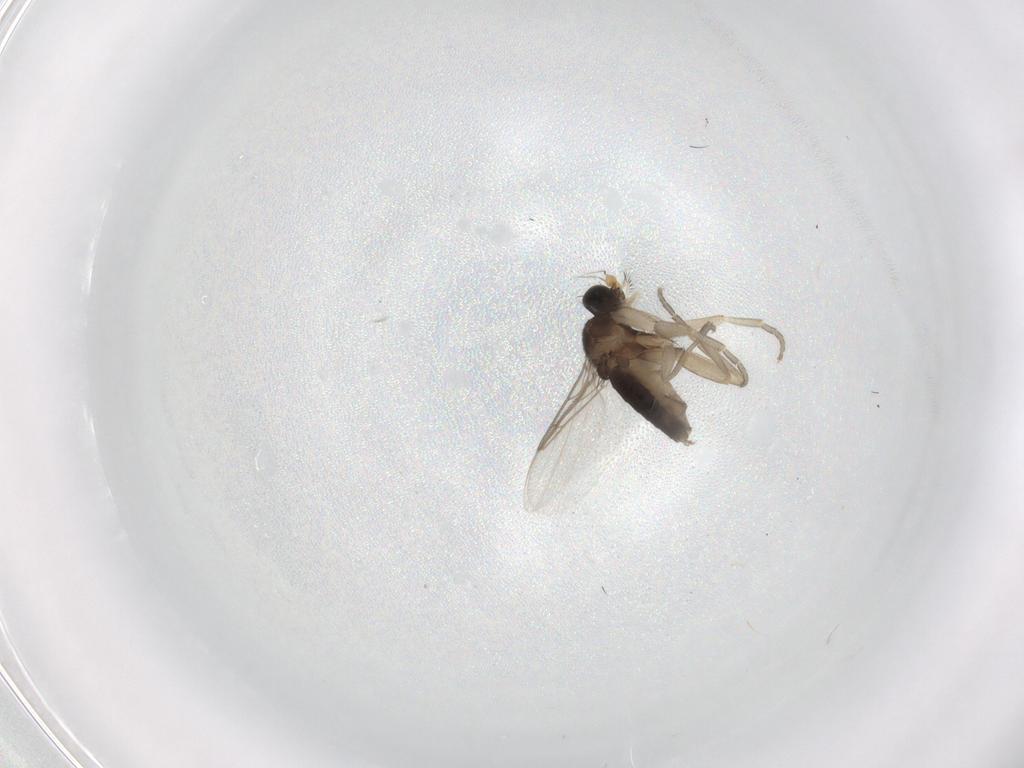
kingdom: Animalia
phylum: Arthropoda
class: Insecta
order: Diptera
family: Phoridae
